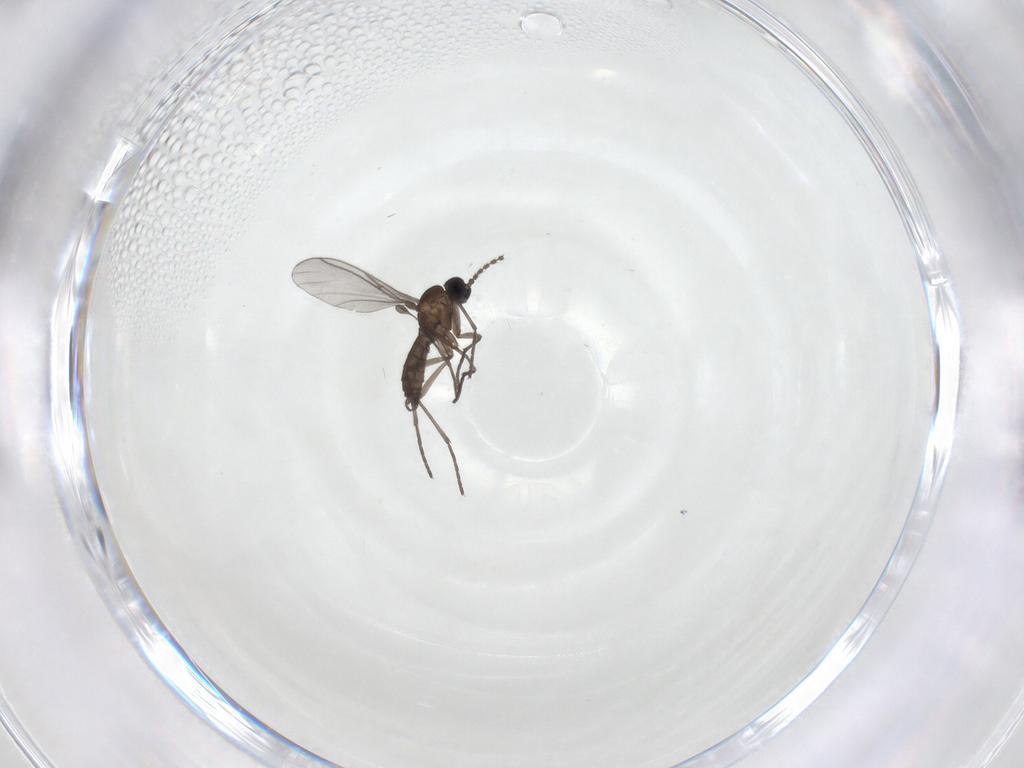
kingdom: Animalia
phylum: Arthropoda
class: Insecta
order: Diptera
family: Sciaridae
